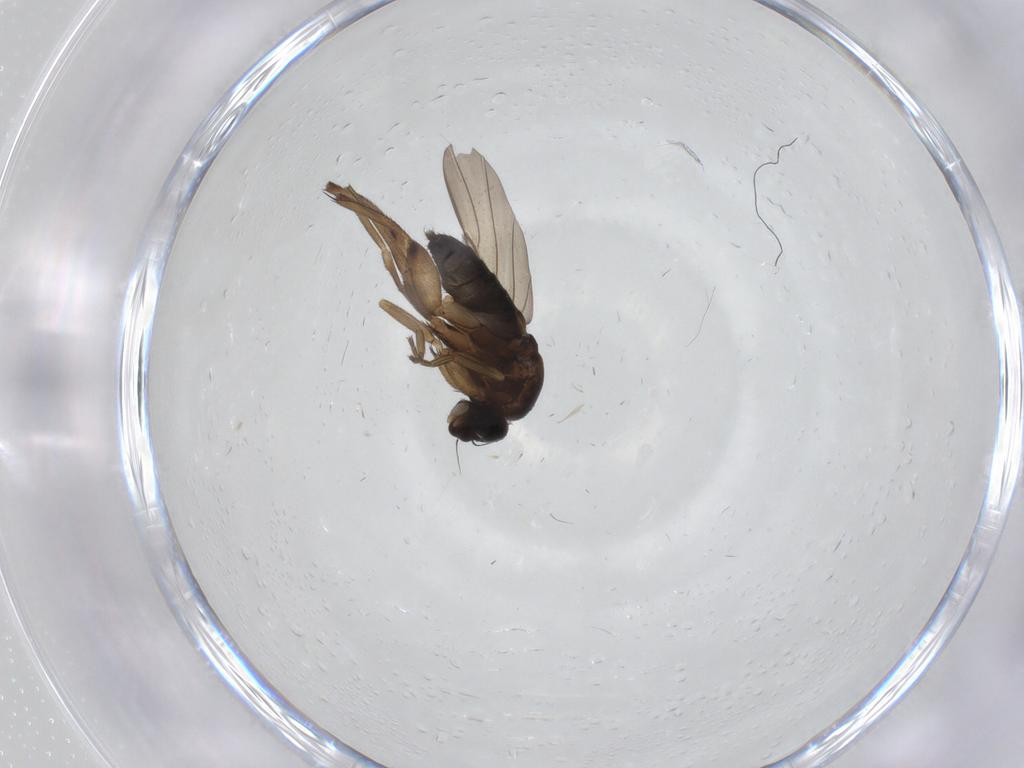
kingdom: Animalia
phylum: Arthropoda
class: Insecta
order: Diptera
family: Phoridae
